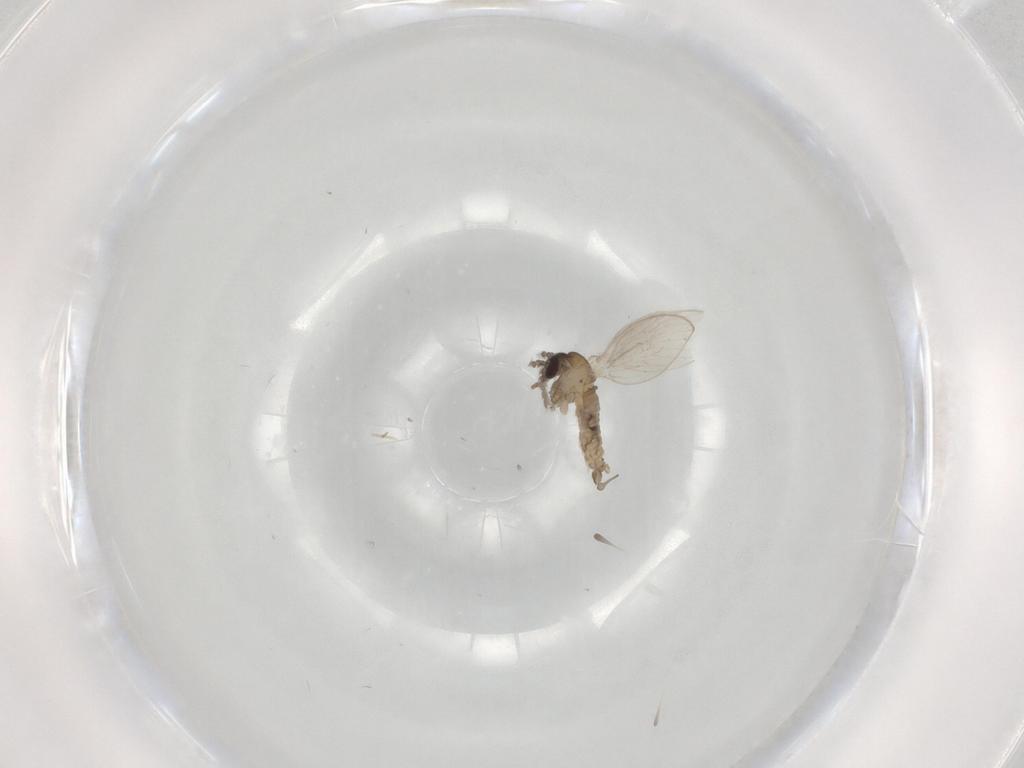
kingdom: Animalia
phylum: Arthropoda
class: Insecta
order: Diptera
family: Psychodidae
